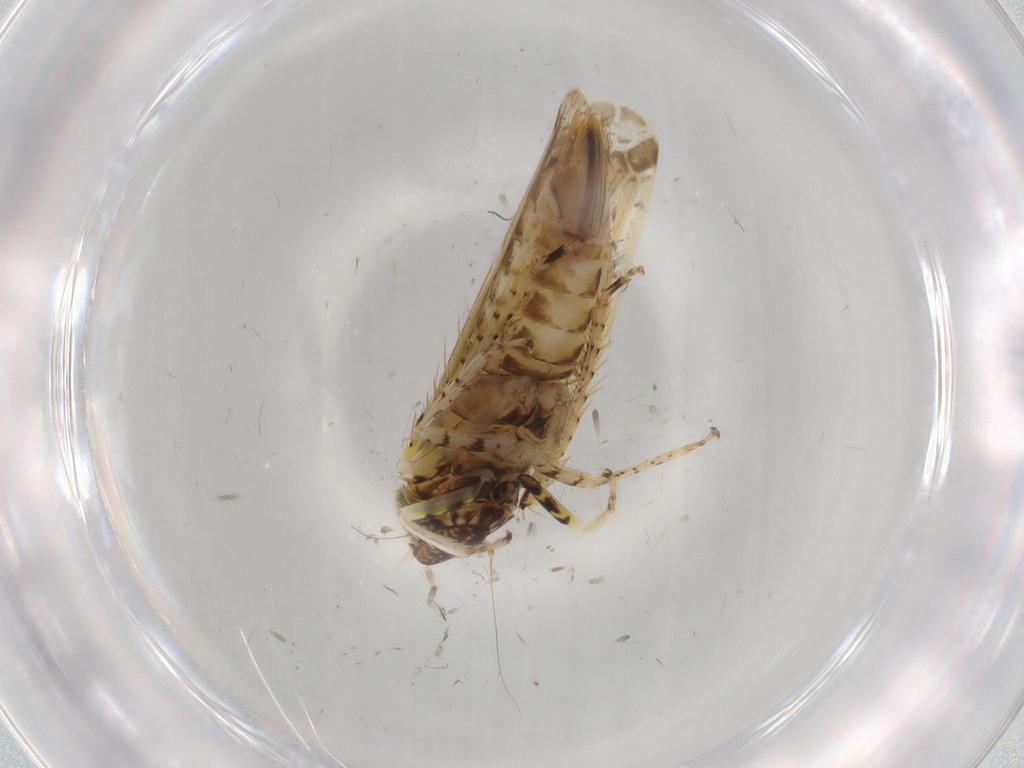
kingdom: Animalia
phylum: Arthropoda
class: Insecta
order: Hemiptera
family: Cicadellidae
